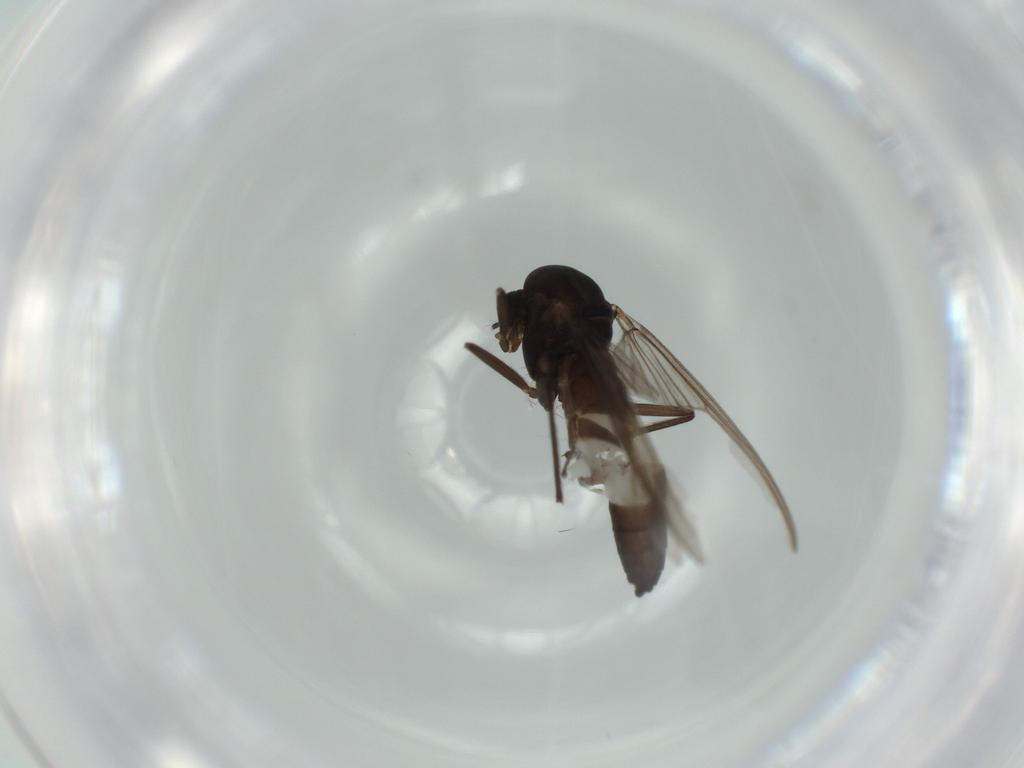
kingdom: Animalia
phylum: Arthropoda
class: Insecta
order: Diptera
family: Chironomidae
